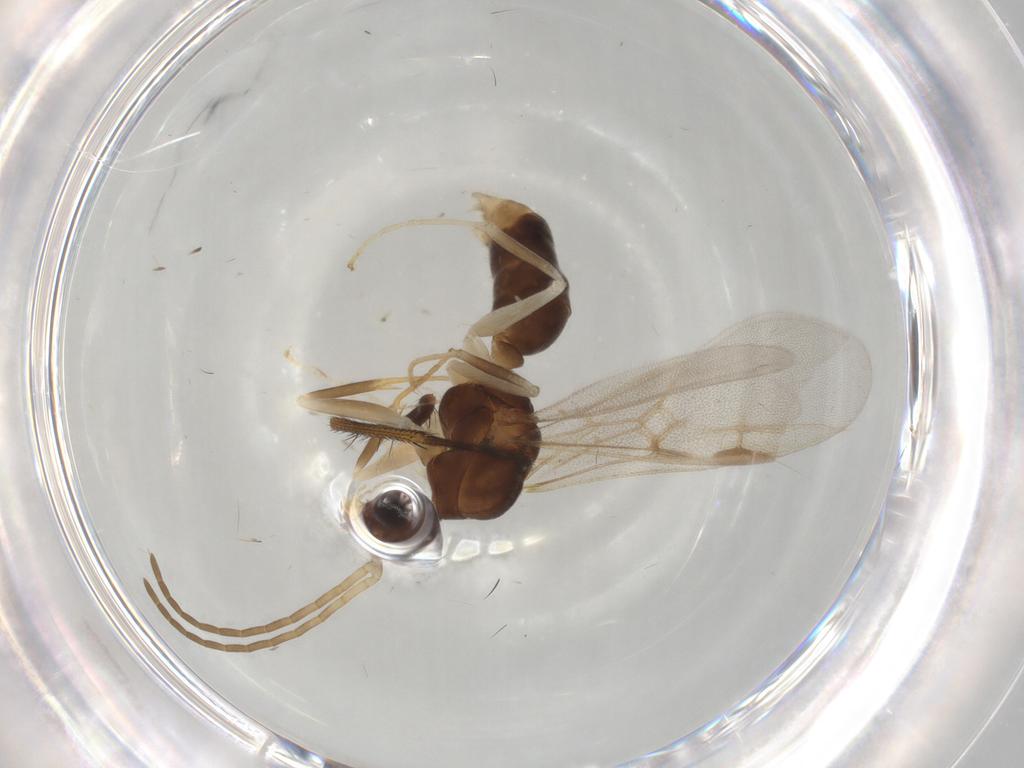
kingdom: Animalia
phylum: Arthropoda
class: Insecta
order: Hymenoptera
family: Formicidae
